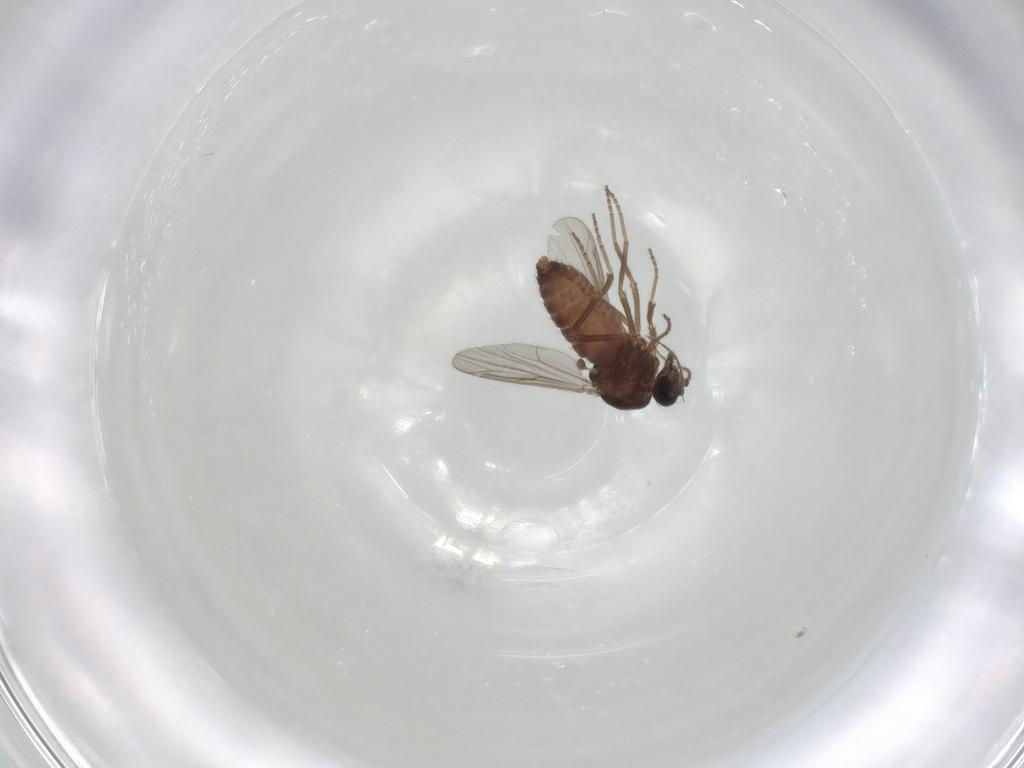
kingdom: Animalia
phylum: Arthropoda
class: Insecta
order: Diptera
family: Ceratopogonidae
